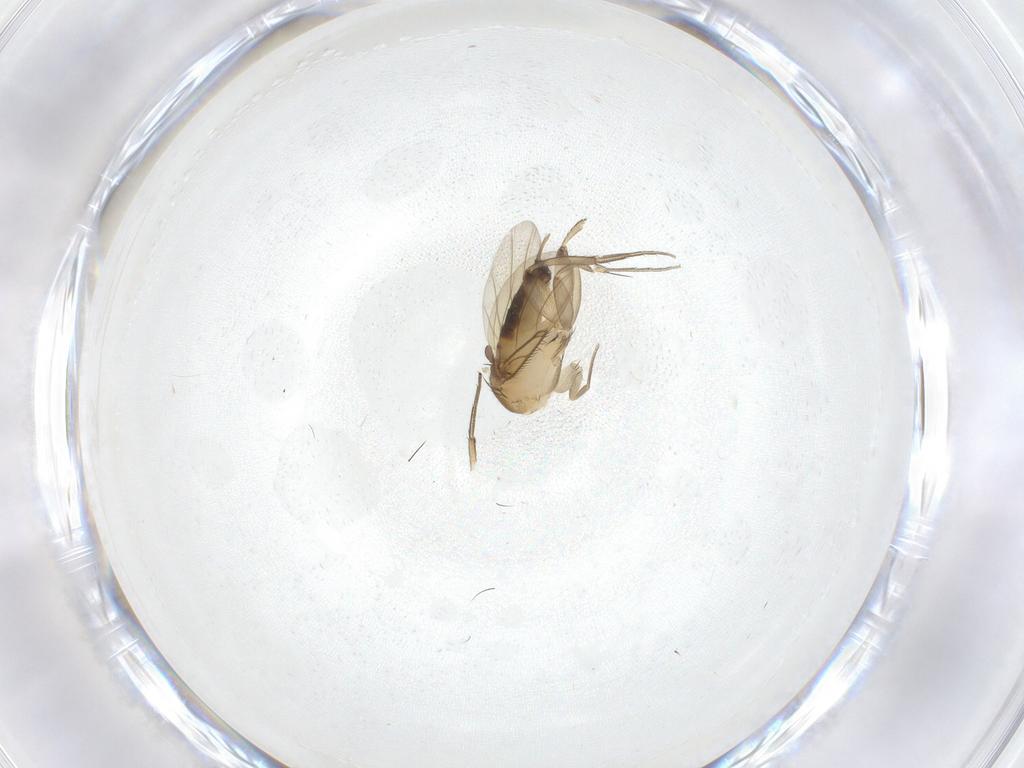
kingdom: Animalia
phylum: Arthropoda
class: Insecta
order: Diptera
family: Phoridae
